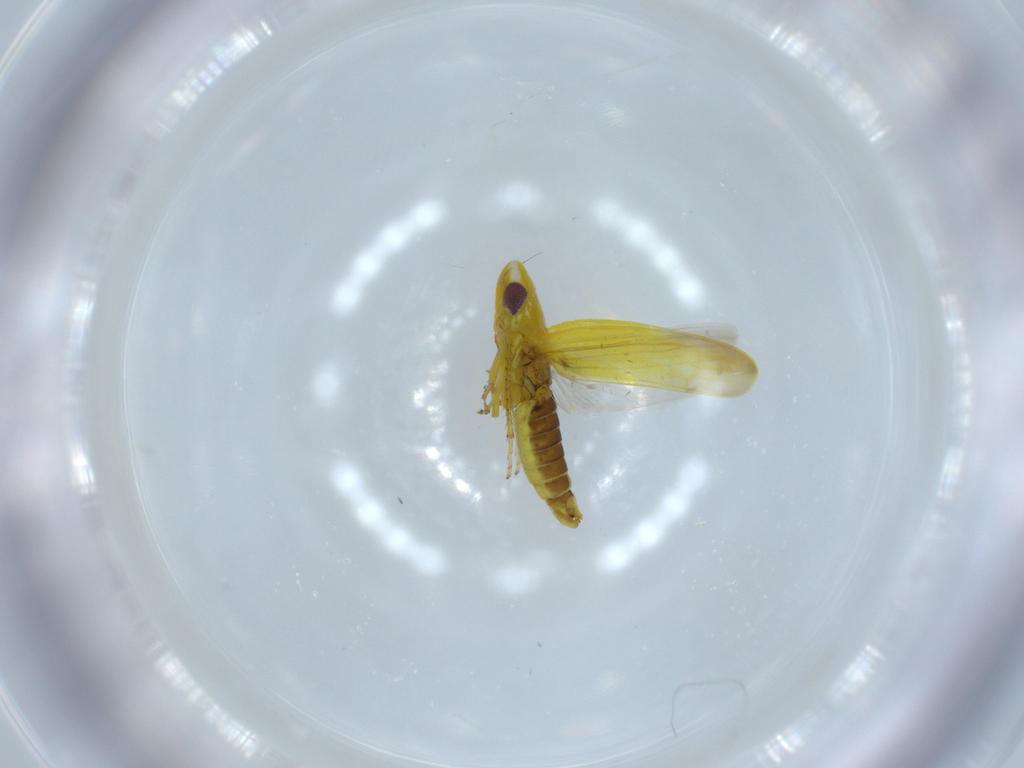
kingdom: Animalia
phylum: Arthropoda
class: Insecta
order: Hemiptera
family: Cicadellidae
